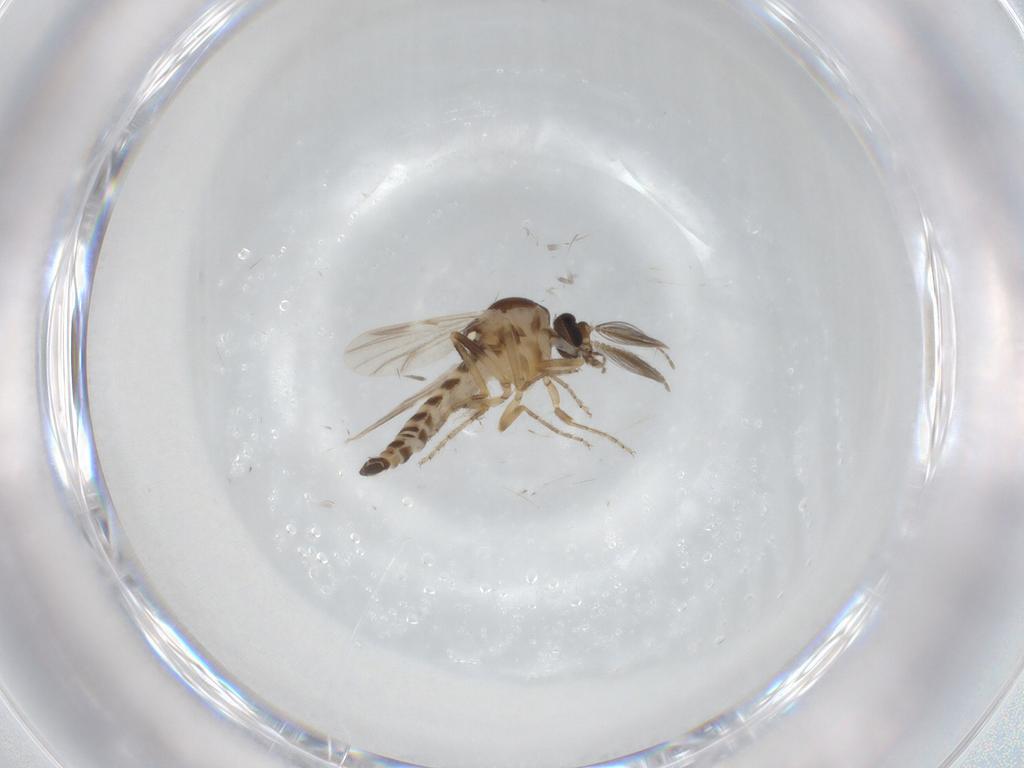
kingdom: Animalia
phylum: Arthropoda
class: Insecta
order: Diptera
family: Ceratopogonidae
